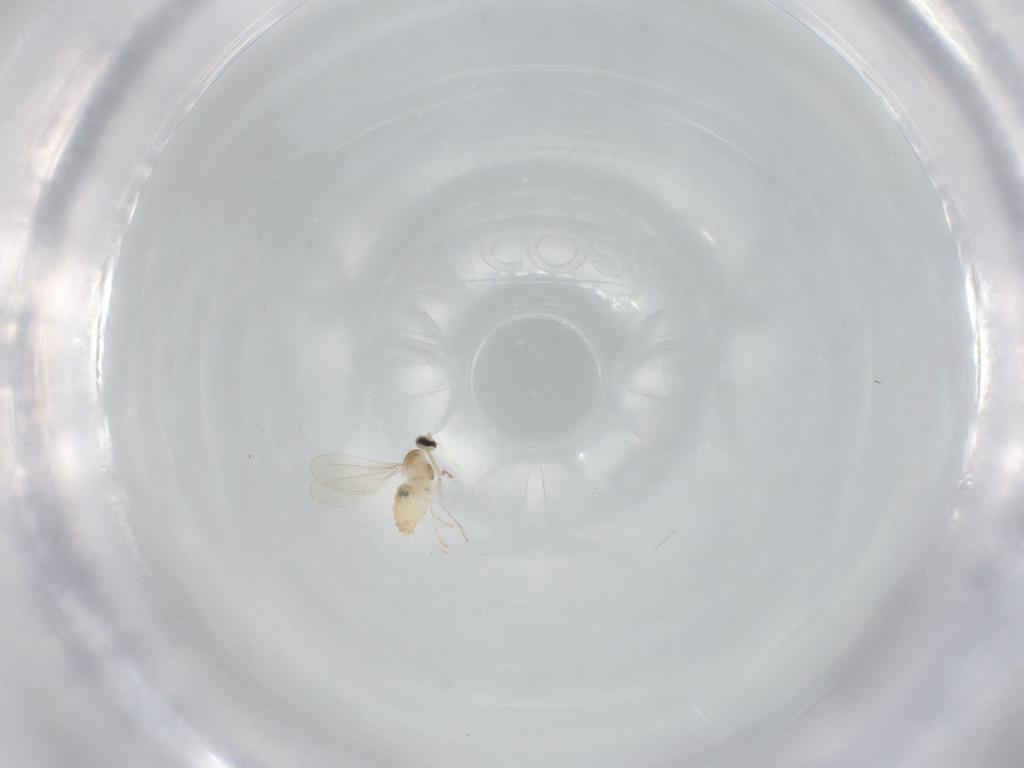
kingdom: Animalia
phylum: Arthropoda
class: Insecta
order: Diptera
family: Cecidomyiidae
